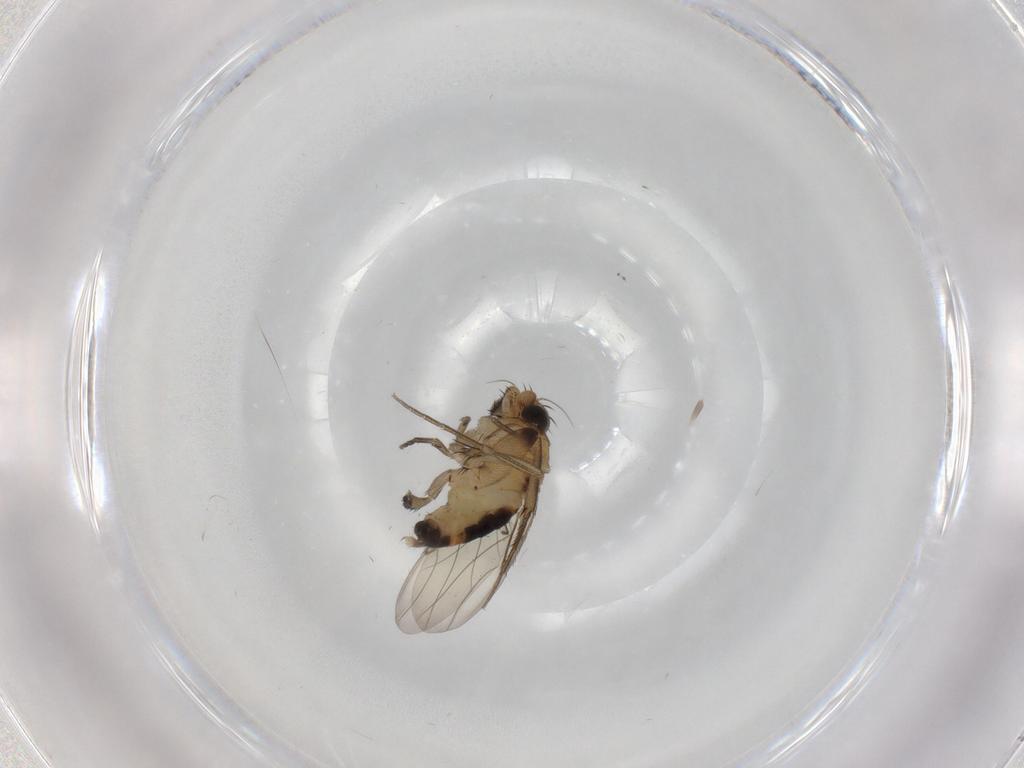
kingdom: Animalia
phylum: Arthropoda
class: Insecta
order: Diptera
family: Phoridae
